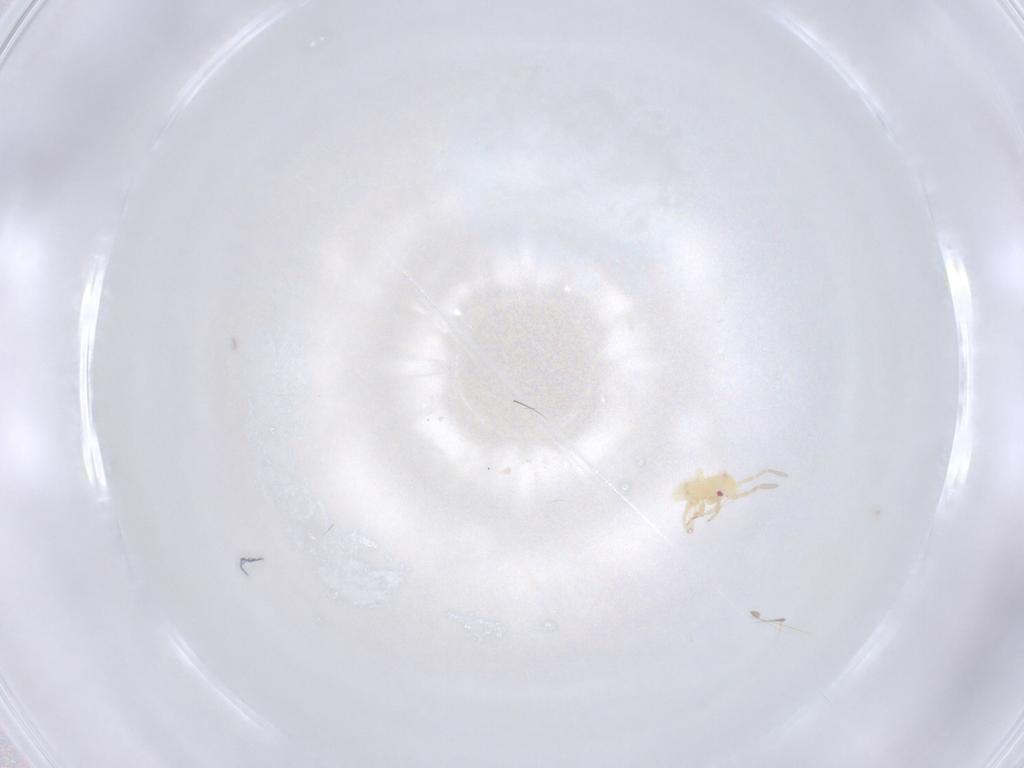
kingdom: Animalia
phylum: Arthropoda
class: Insecta
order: Hemiptera
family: Miridae
